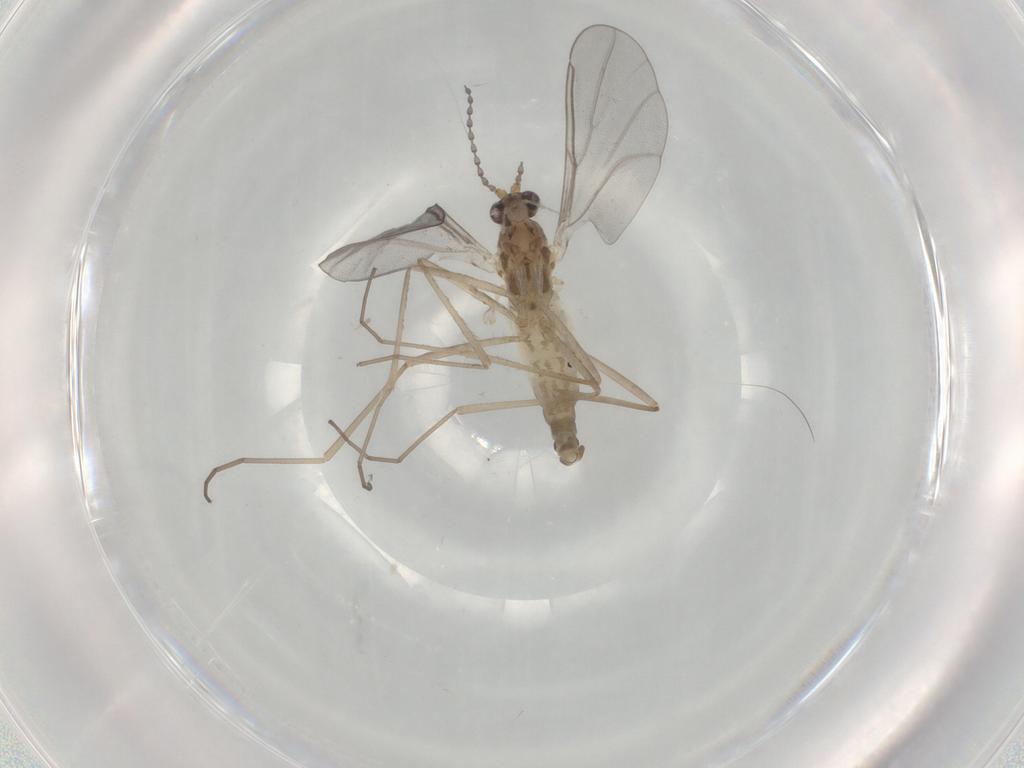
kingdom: Animalia
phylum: Arthropoda
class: Insecta
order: Diptera
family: Cecidomyiidae
